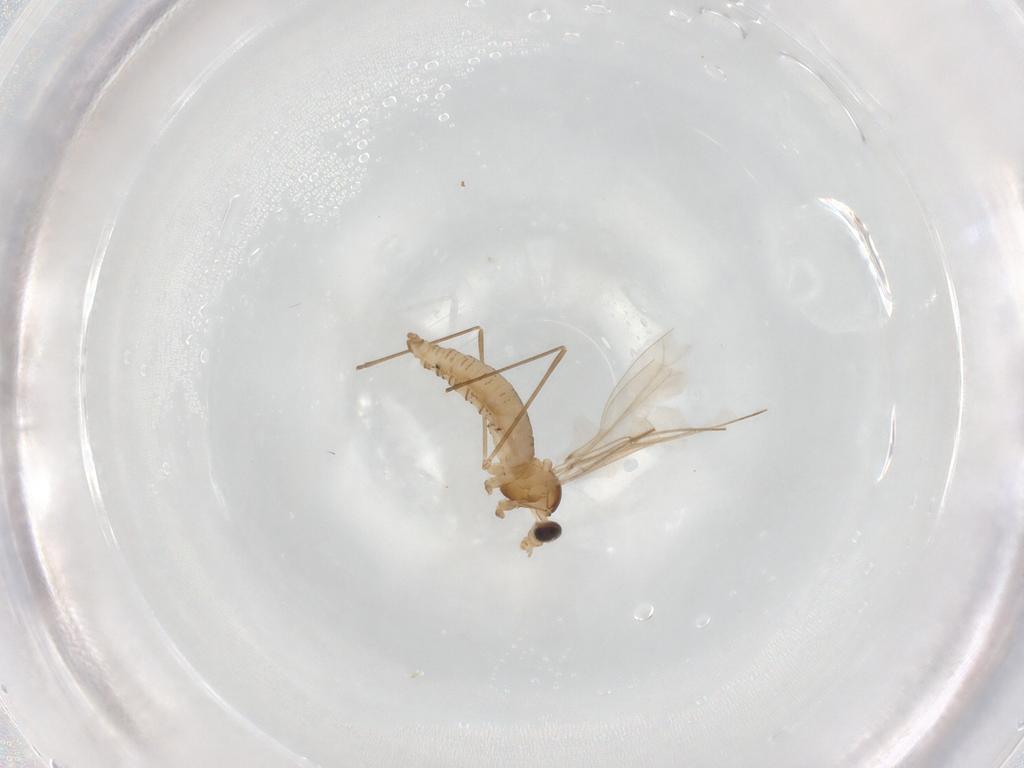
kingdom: Animalia
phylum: Arthropoda
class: Insecta
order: Diptera
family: Cecidomyiidae
